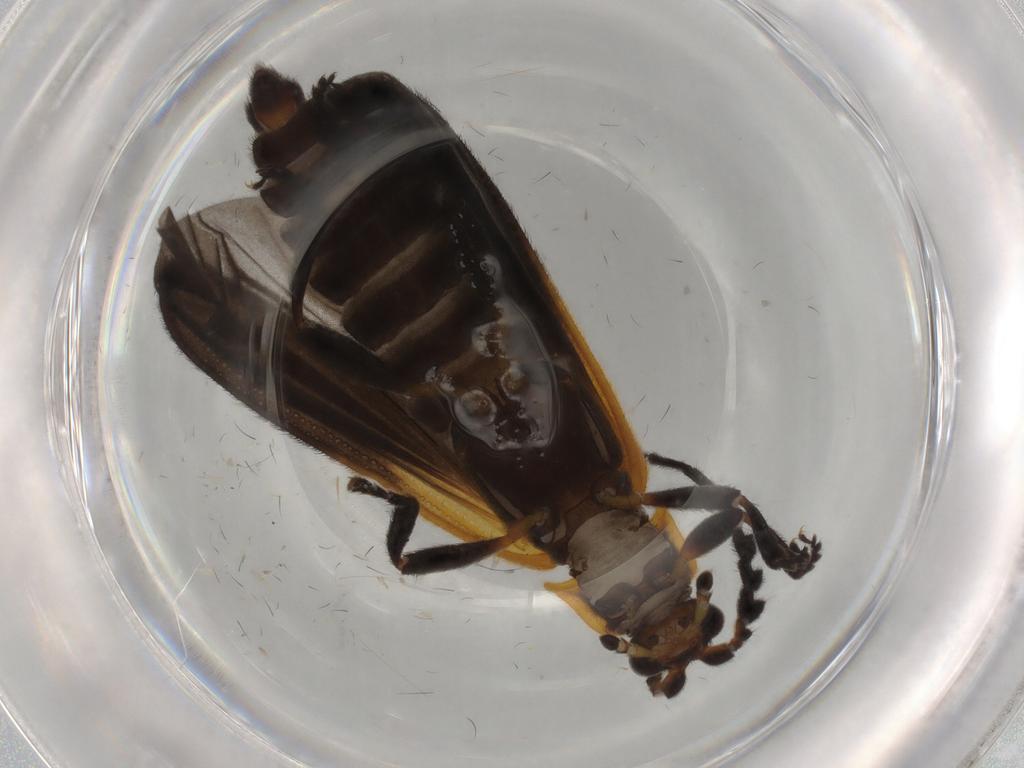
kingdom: Animalia
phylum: Arthropoda
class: Insecta
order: Coleoptera
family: Lycidae
